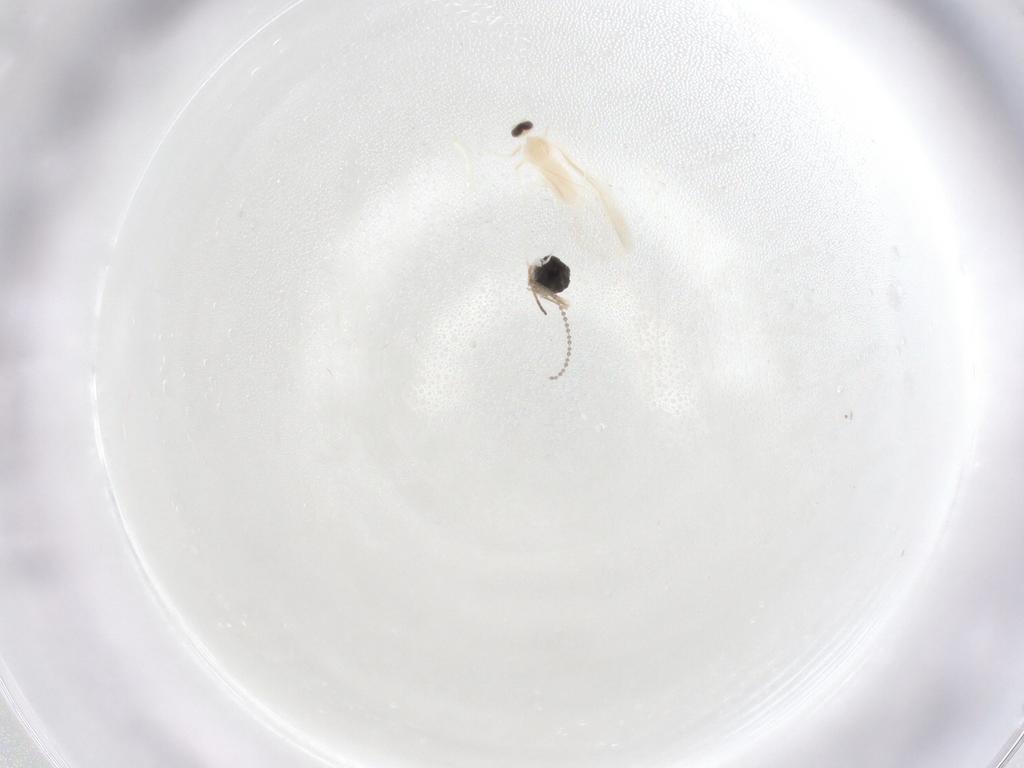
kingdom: Animalia
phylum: Arthropoda
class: Insecta
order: Diptera
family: Cecidomyiidae
